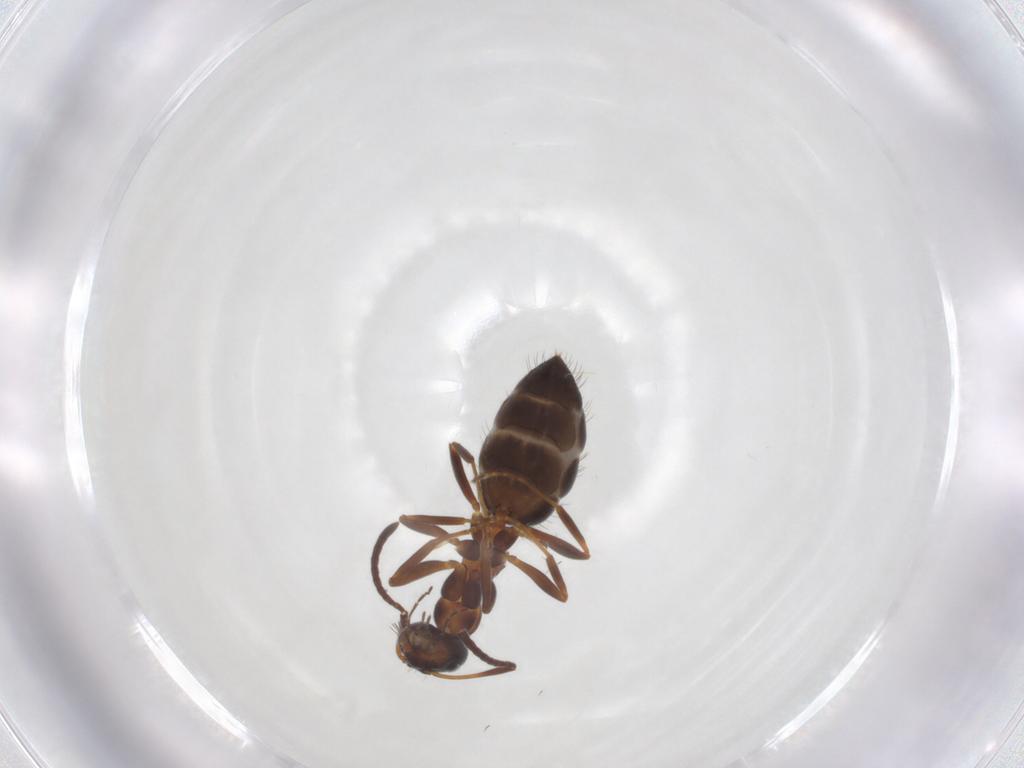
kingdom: Animalia
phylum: Arthropoda
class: Insecta
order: Hymenoptera
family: Formicidae
